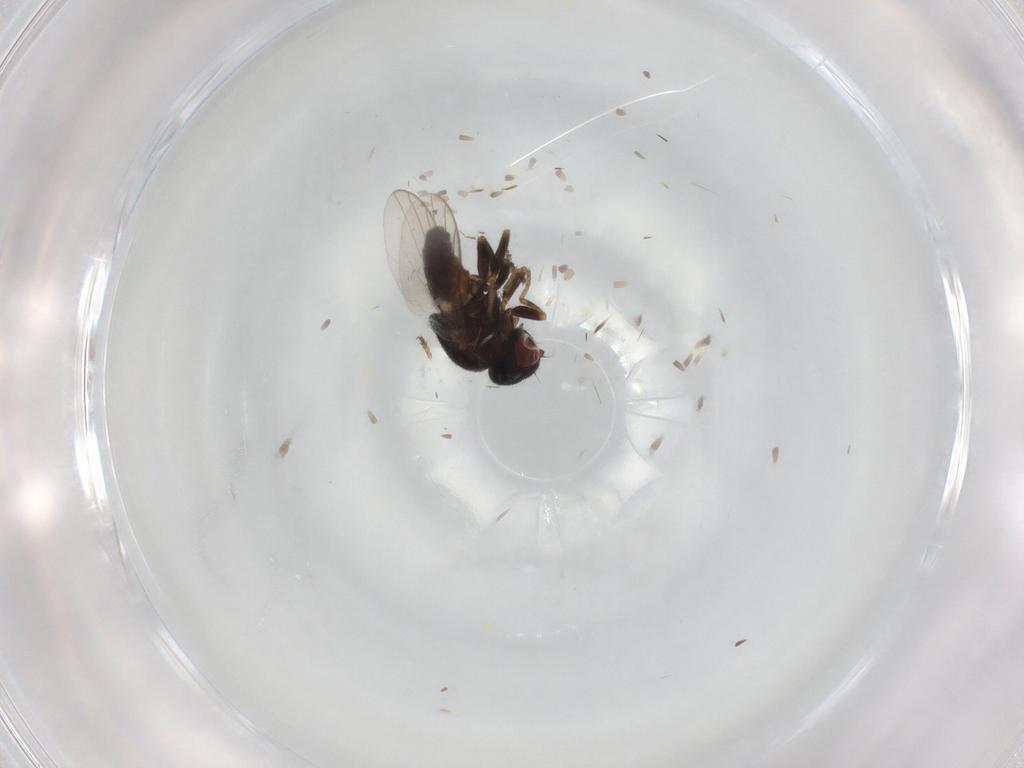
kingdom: Animalia
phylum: Arthropoda
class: Insecta
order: Diptera
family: Chloropidae
